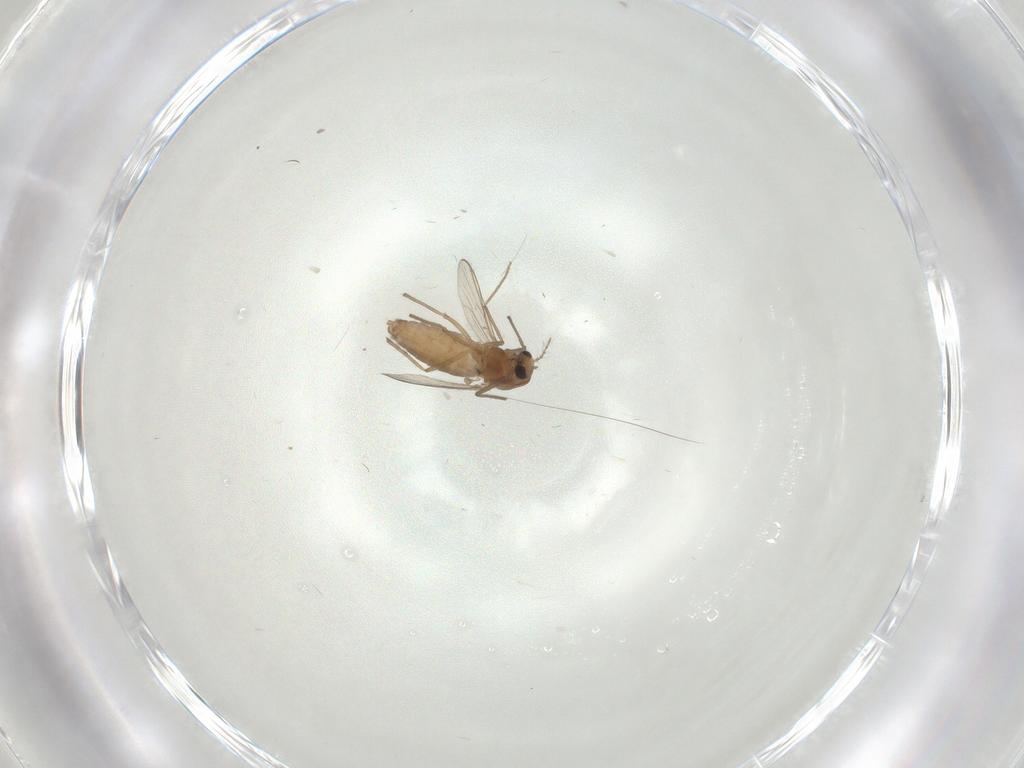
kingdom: Animalia
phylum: Arthropoda
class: Insecta
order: Diptera
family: Chironomidae
